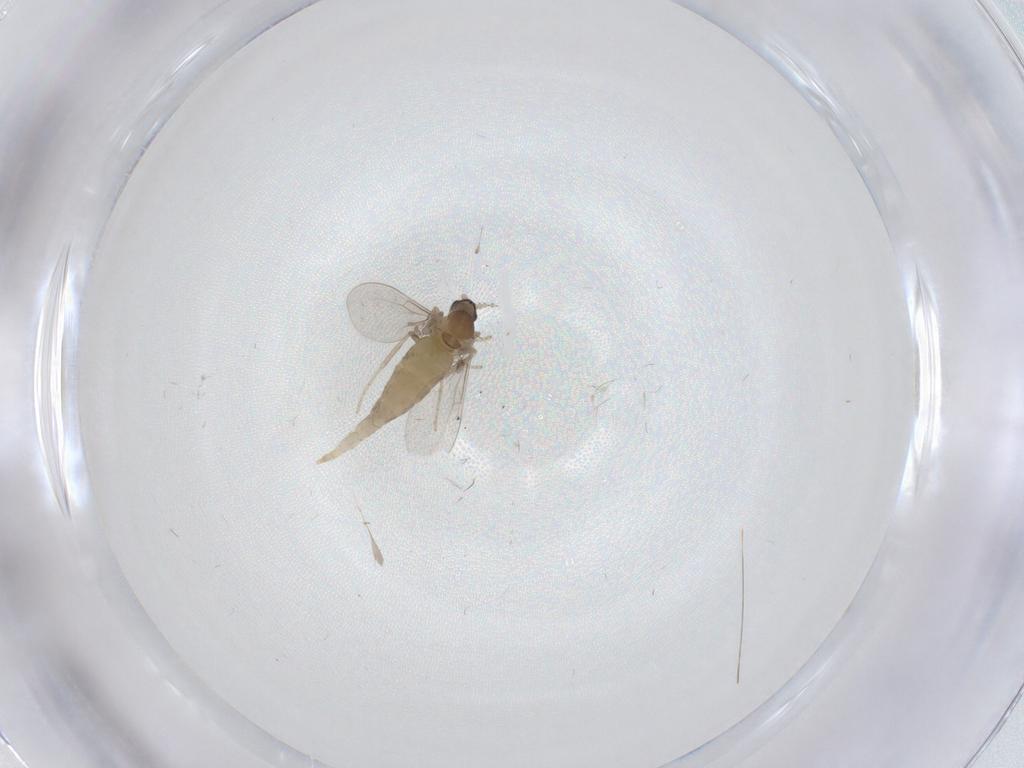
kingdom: Animalia
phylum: Arthropoda
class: Insecta
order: Diptera
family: Cecidomyiidae
